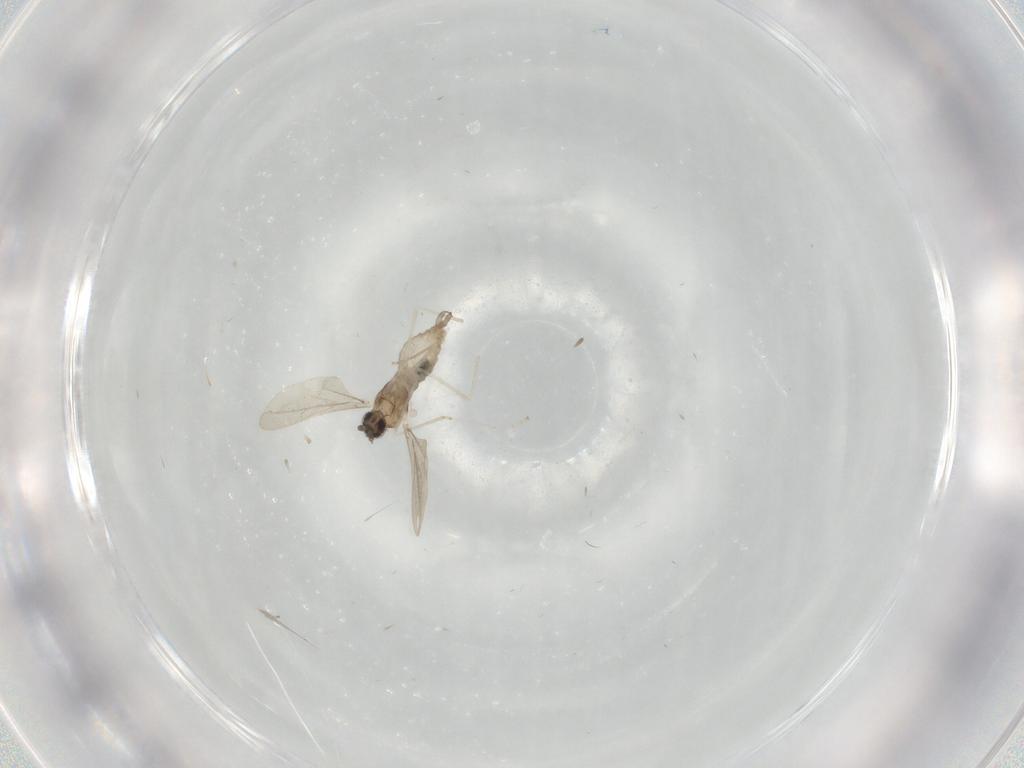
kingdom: Animalia
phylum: Arthropoda
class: Insecta
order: Diptera
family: Cecidomyiidae
